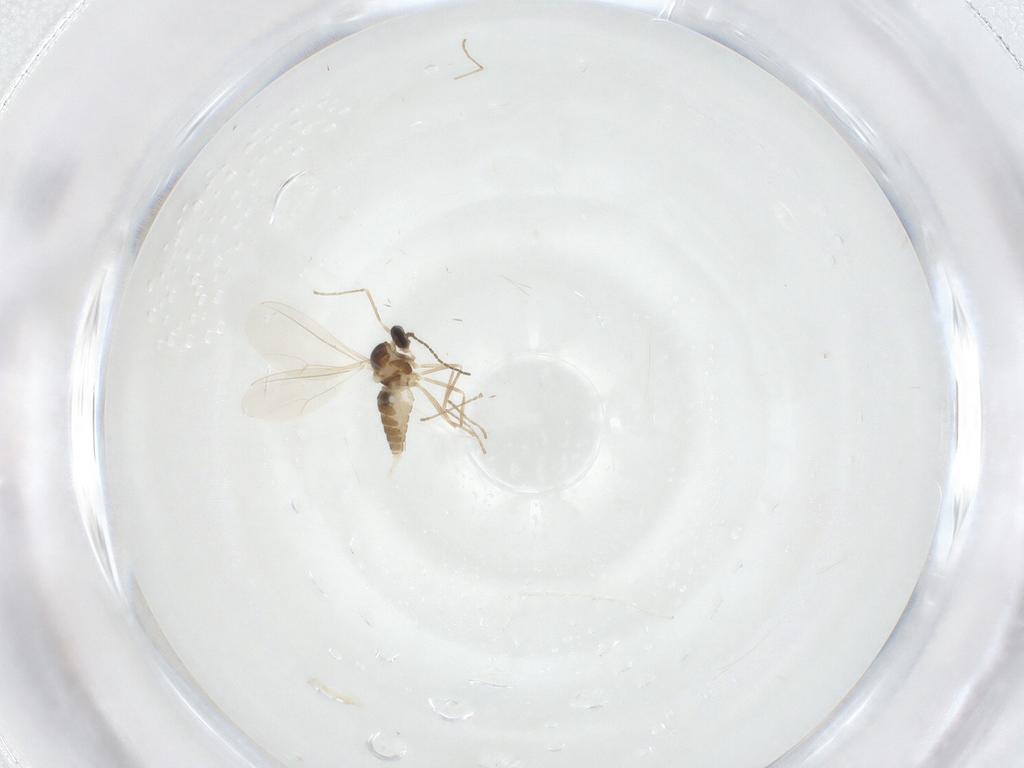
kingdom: Animalia
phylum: Arthropoda
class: Insecta
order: Diptera
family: Cecidomyiidae
